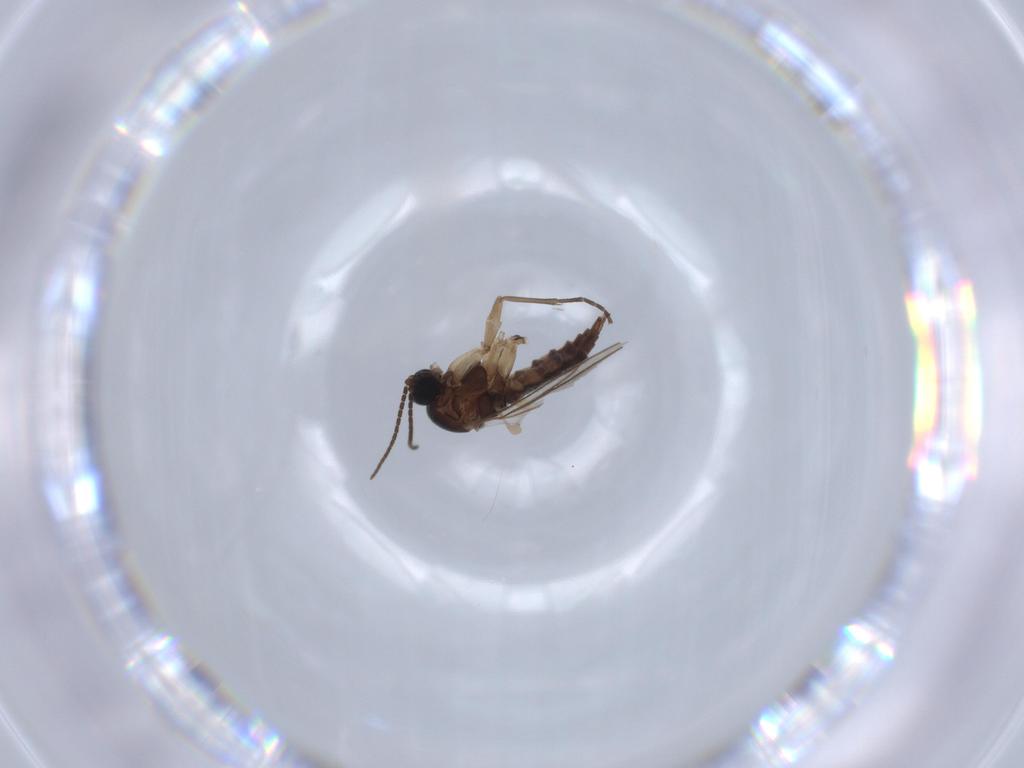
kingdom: Animalia
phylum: Arthropoda
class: Insecta
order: Diptera
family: Sciaridae
